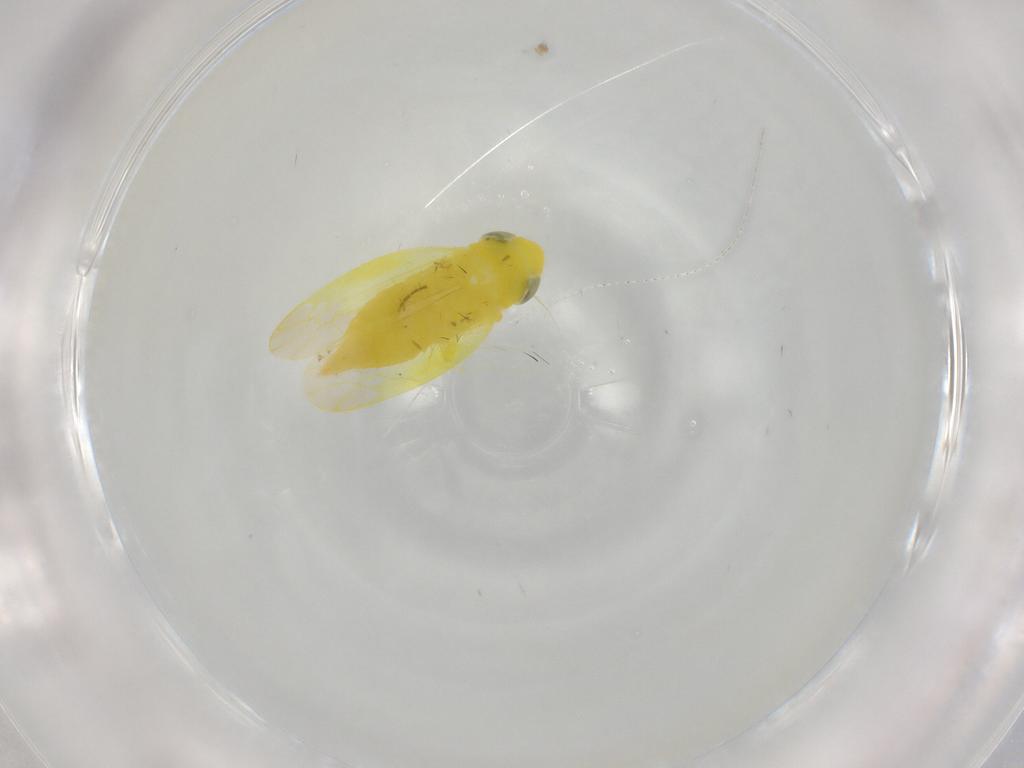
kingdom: Animalia
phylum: Arthropoda
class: Insecta
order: Hemiptera
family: Cicadellidae
